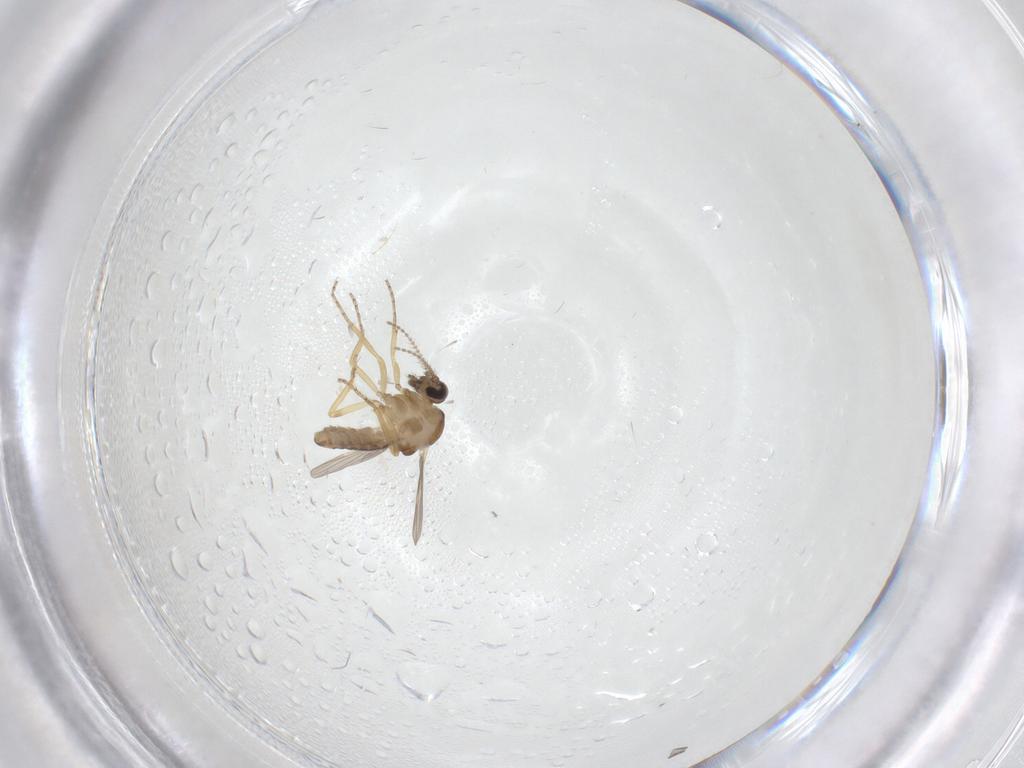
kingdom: Animalia
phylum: Arthropoda
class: Insecta
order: Diptera
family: Ceratopogonidae
